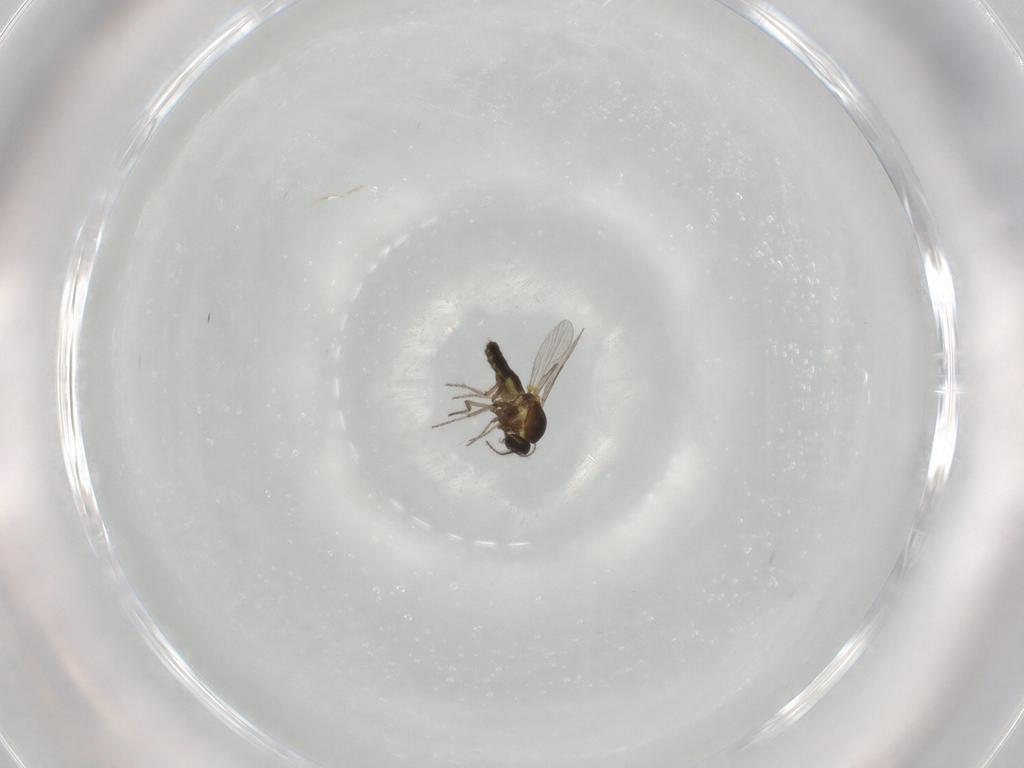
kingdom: Animalia
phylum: Arthropoda
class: Insecta
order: Diptera
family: Ceratopogonidae
